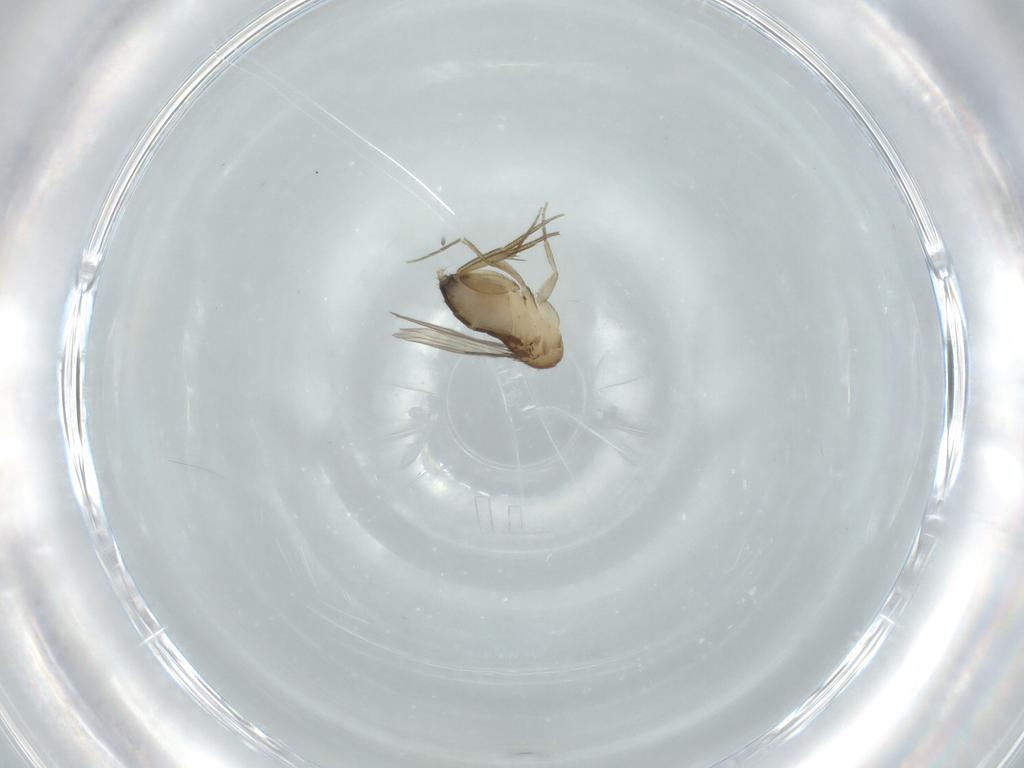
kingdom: Animalia
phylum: Arthropoda
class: Insecta
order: Diptera
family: Phoridae
